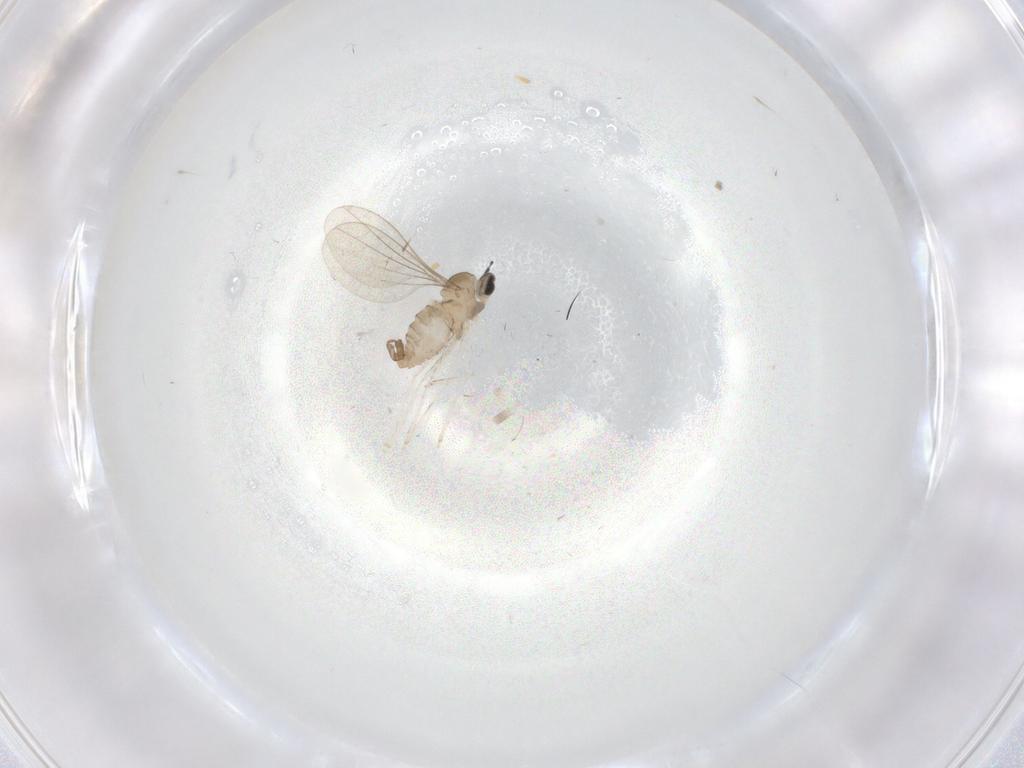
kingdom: Animalia
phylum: Arthropoda
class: Insecta
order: Diptera
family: Cecidomyiidae
